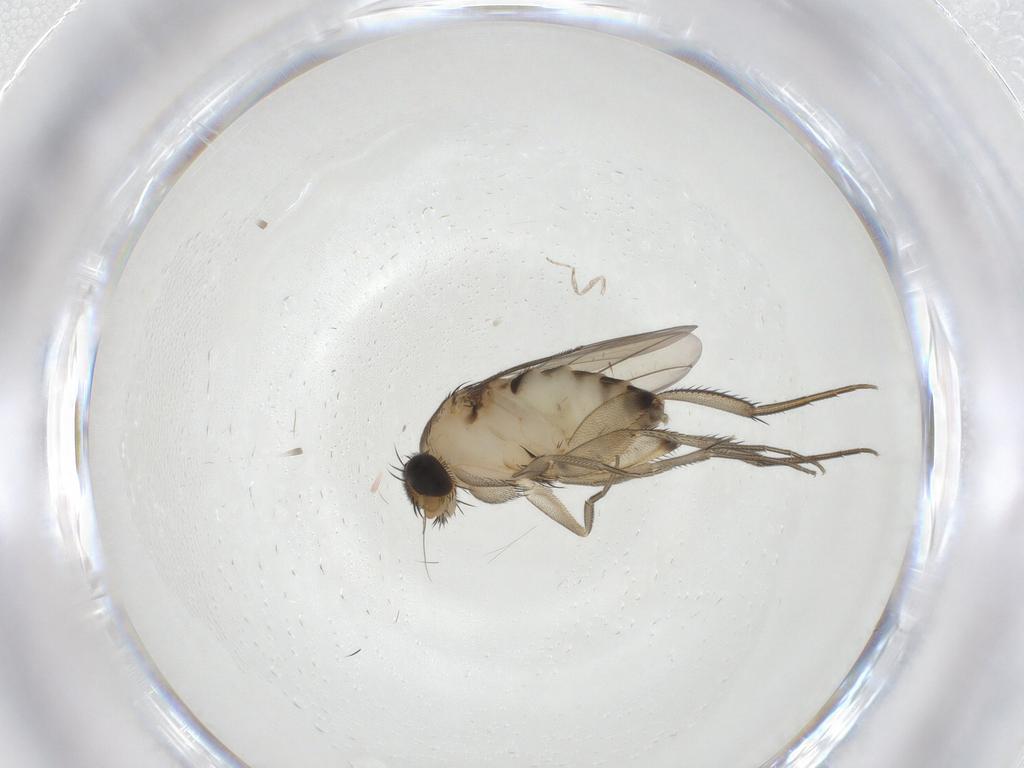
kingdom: Animalia
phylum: Arthropoda
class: Insecta
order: Diptera
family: Phoridae
